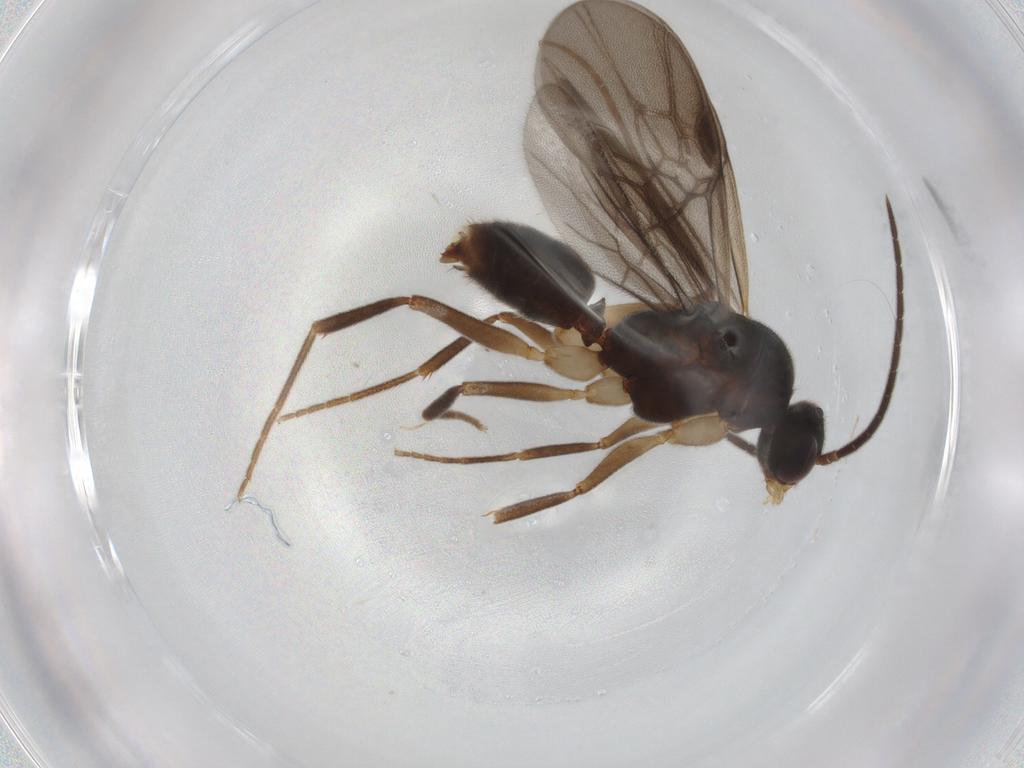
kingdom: Animalia
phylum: Arthropoda
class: Insecta
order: Hymenoptera
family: Formicidae
